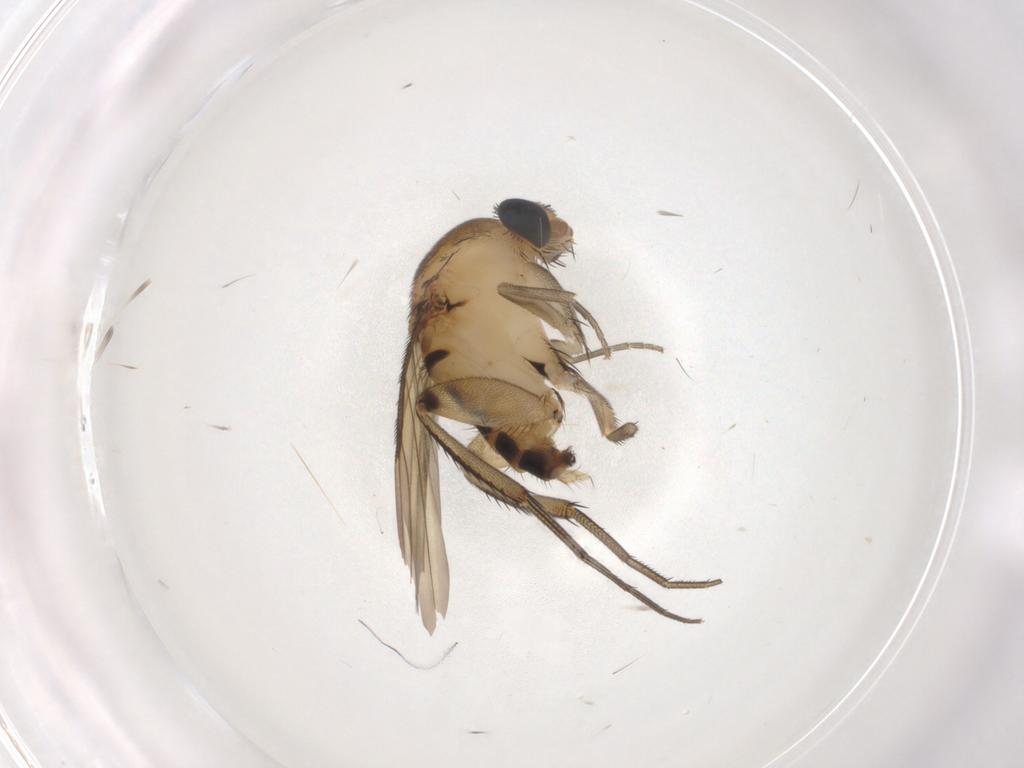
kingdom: Animalia
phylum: Arthropoda
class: Insecta
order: Diptera
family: Phoridae
